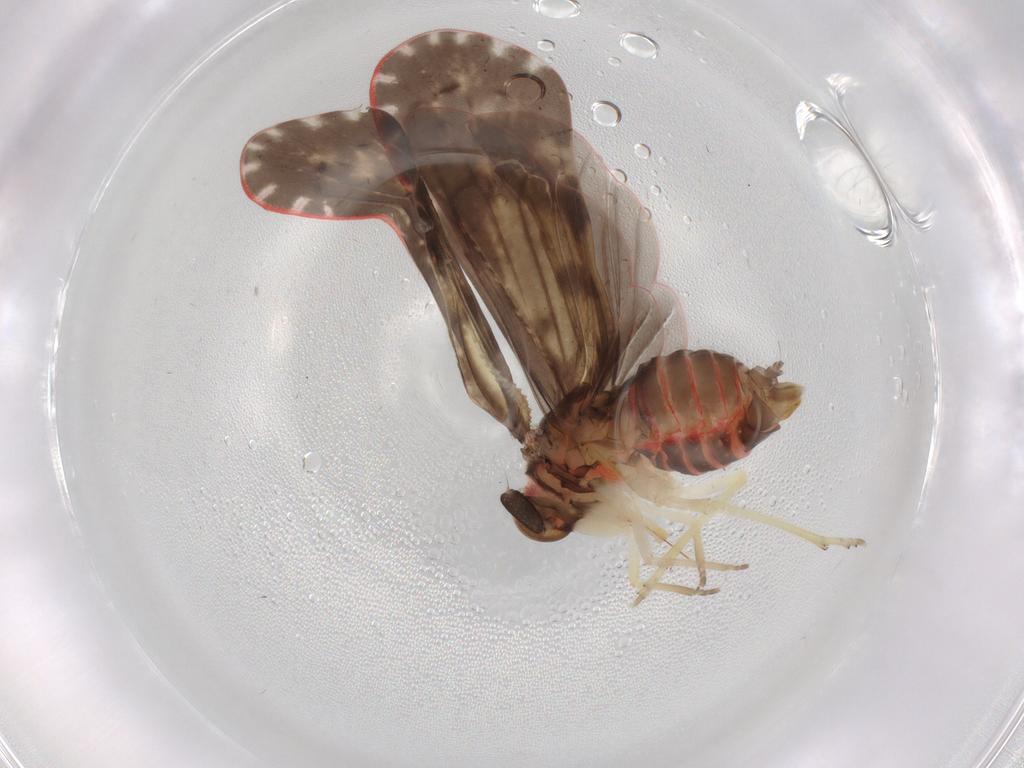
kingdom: Animalia
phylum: Arthropoda
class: Insecta
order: Hemiptera
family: Derbidae
